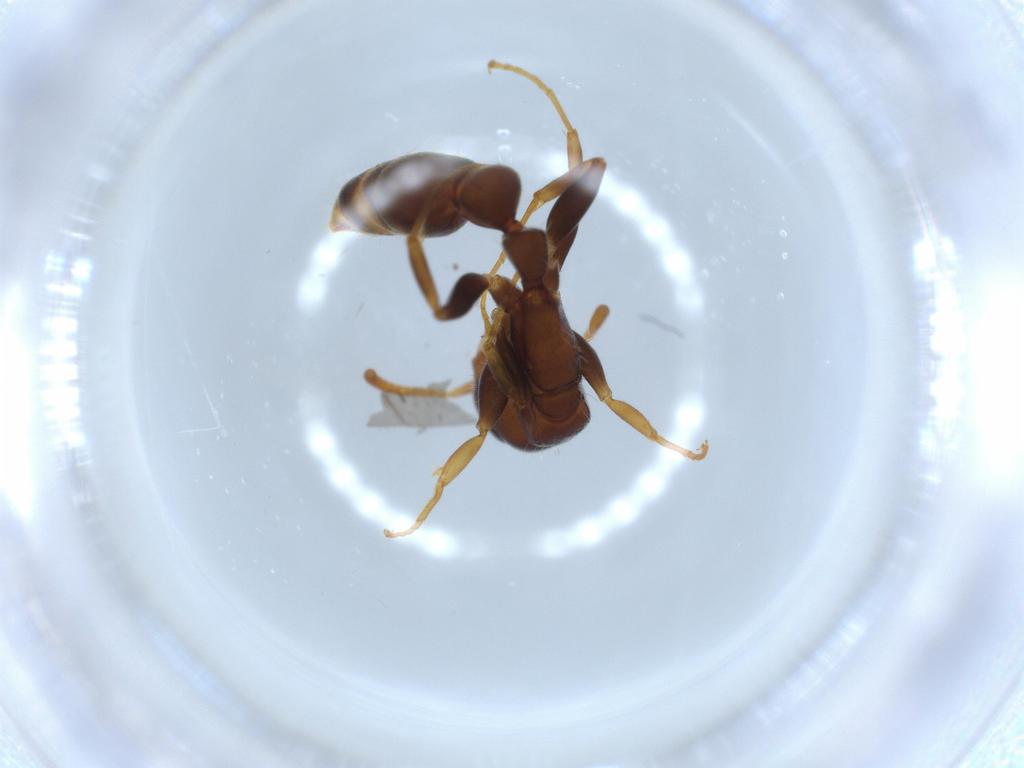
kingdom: Animalia
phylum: Arthropoda
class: Insecta
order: Hymenoptera
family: Formicidae
